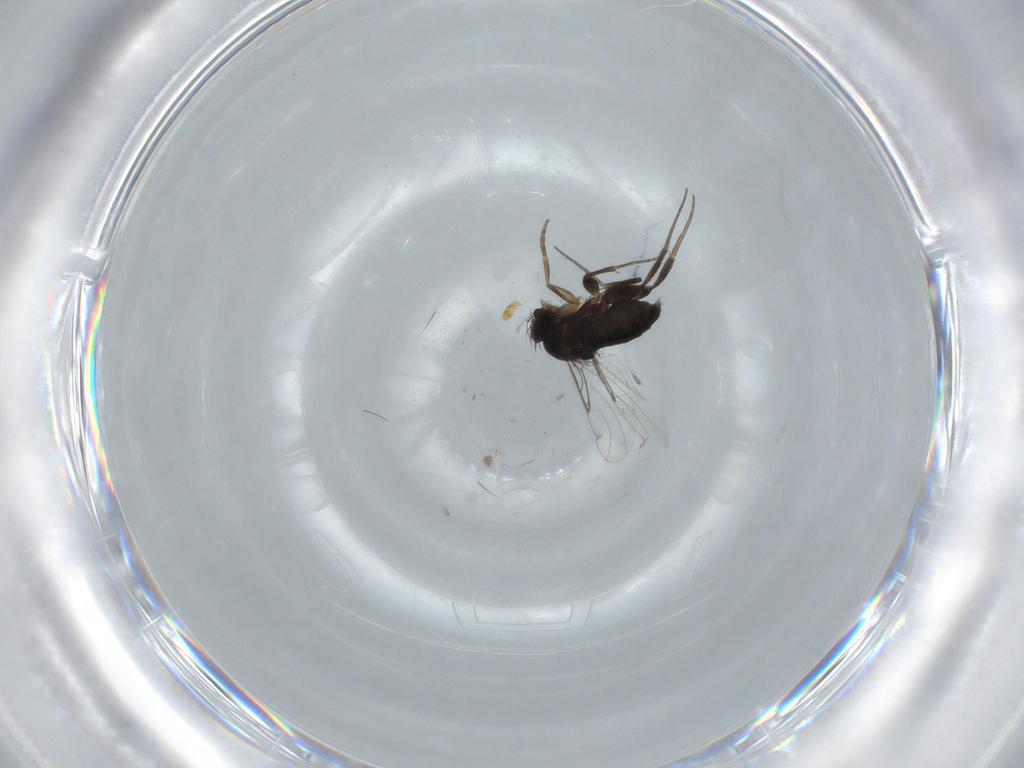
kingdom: Animalia
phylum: Arthropoda
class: Insecta
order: Diptera
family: Phoridae
